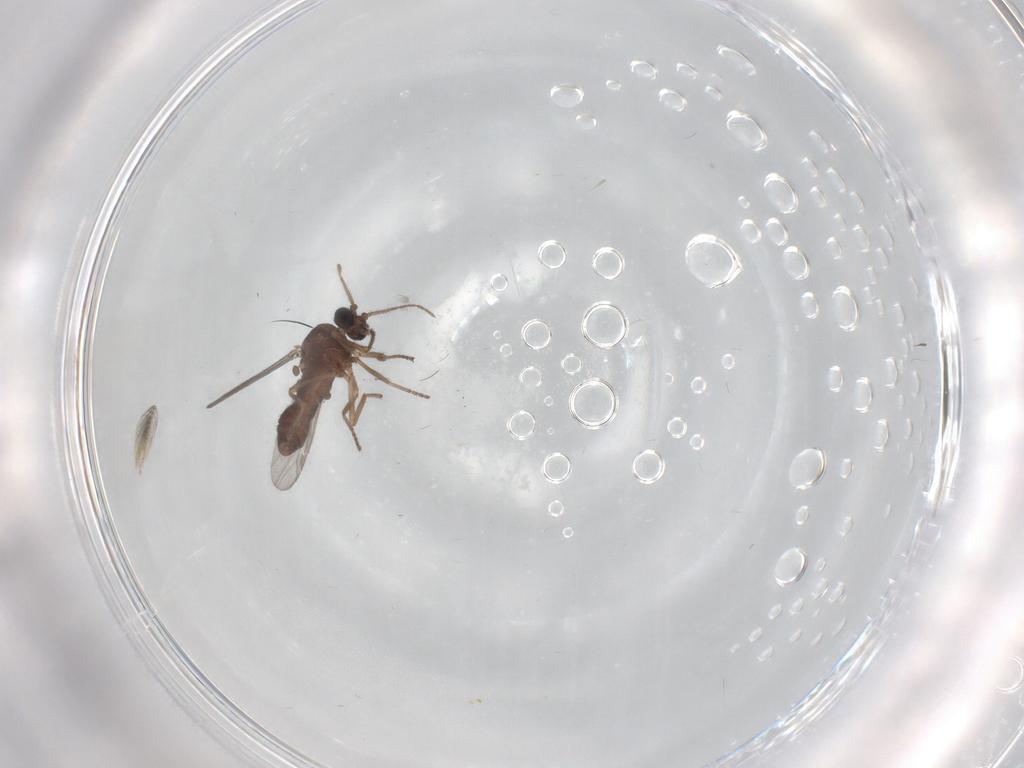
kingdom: Animalia
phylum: Arthropoda
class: Insecta
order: Diptera
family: Ceratopogonidae
